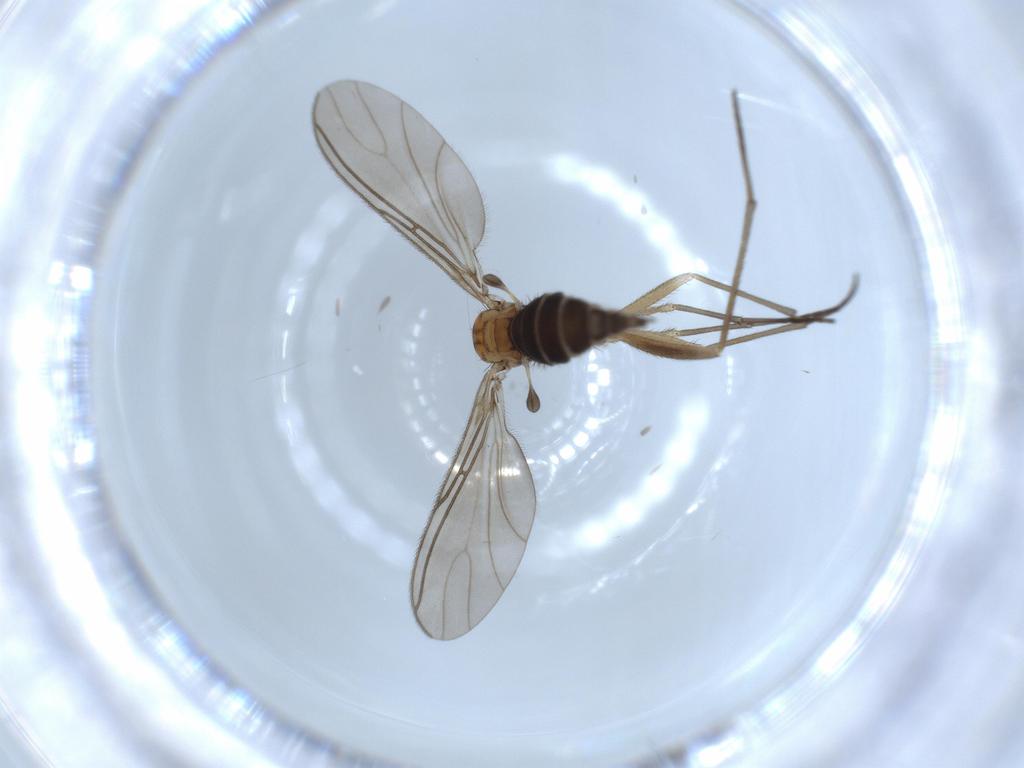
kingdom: Animalia
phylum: Arthropoda
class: Insecta
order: Diptera
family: Sciaridae
